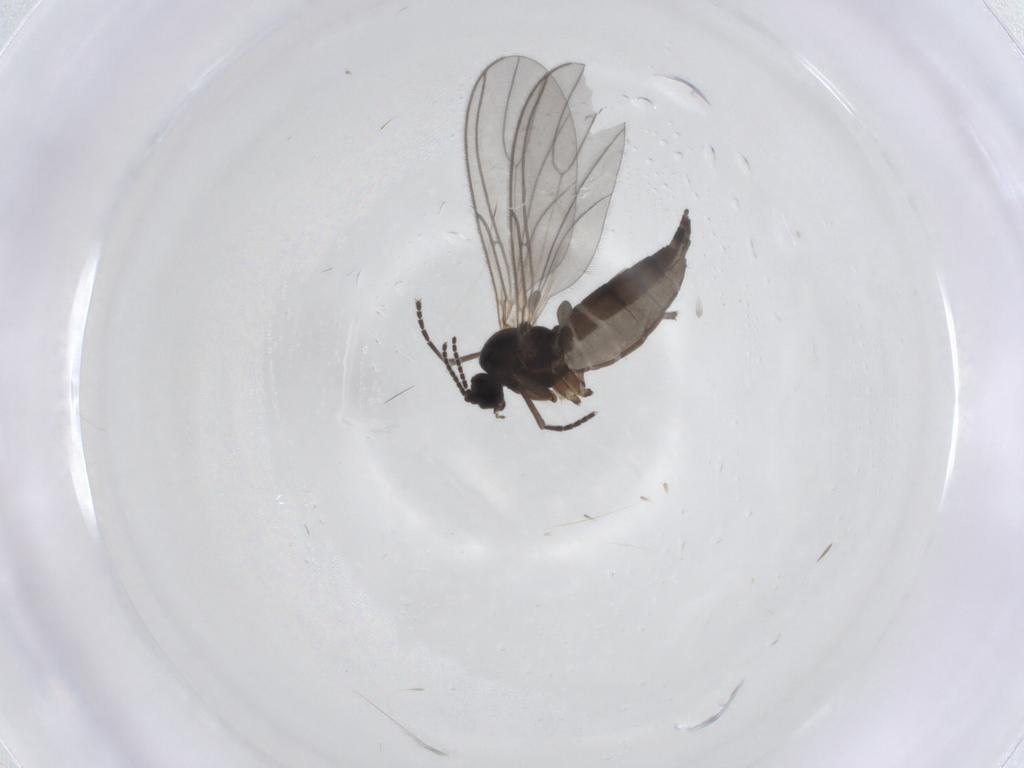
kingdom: Animalia
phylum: Arthropoda
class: Insecta
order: Diptera
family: Sciaridae
